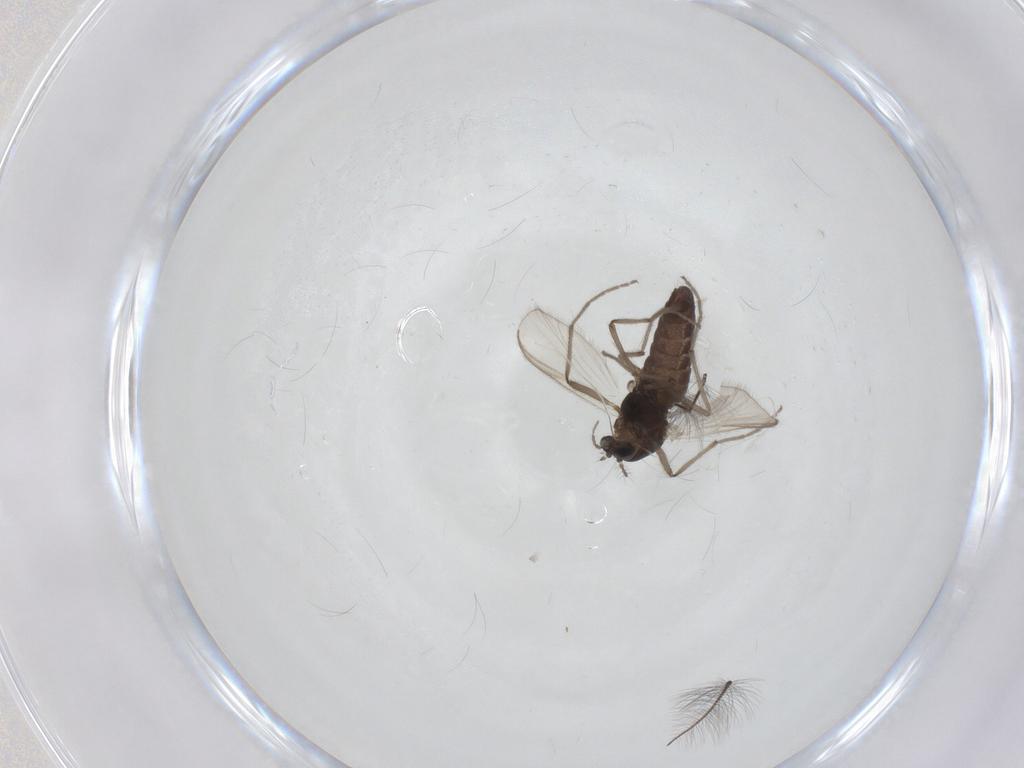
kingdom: Animalia
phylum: Arthropoda
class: Insecta
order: Diptera
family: Chironomidae
